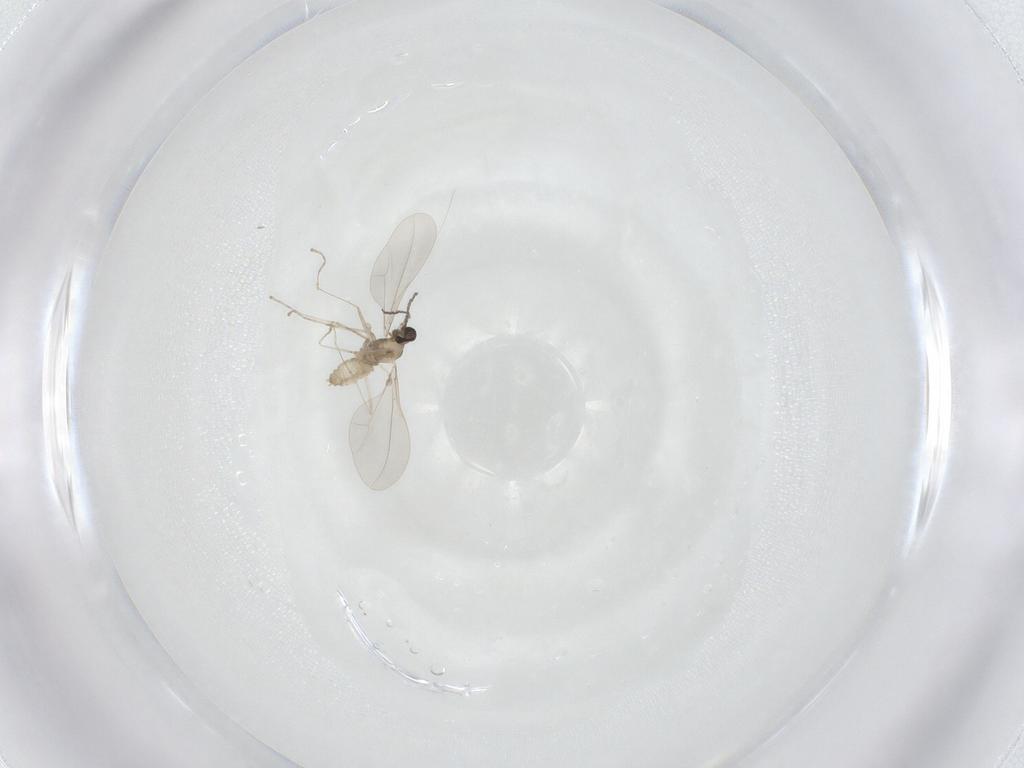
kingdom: Animalia
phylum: Arthropoda
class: Insecta
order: Diptera
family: Cecidomyiidae
